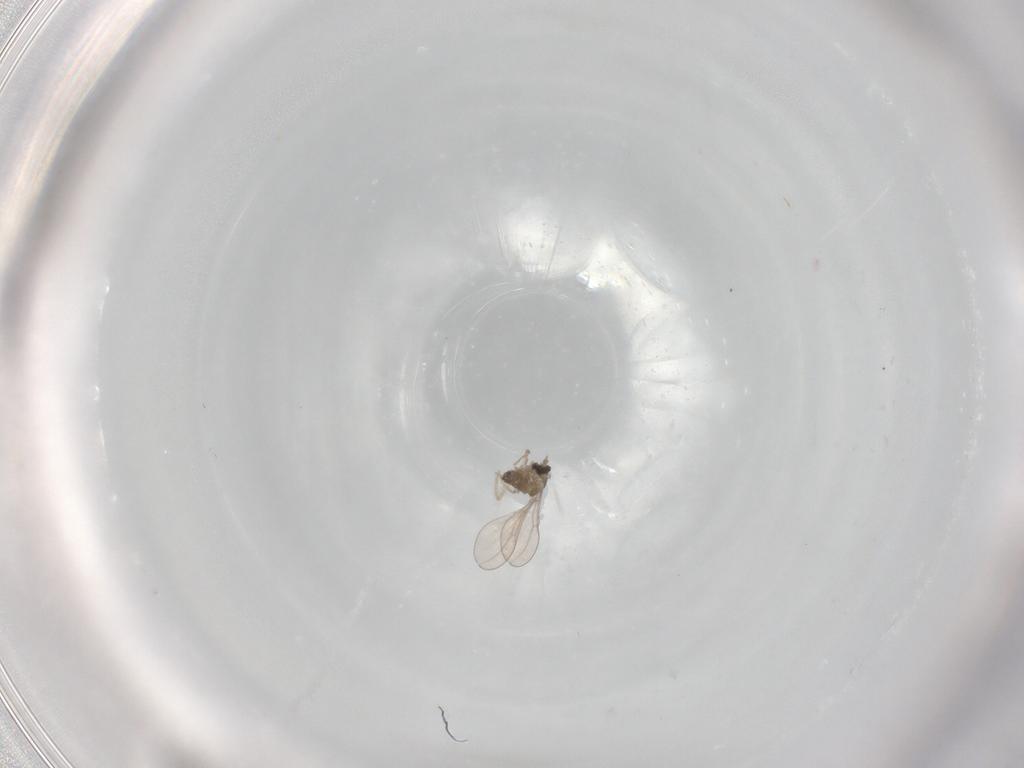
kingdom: Animalia
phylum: Arthropoda
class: Insecta
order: Diptera
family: Cecidomyiidae
